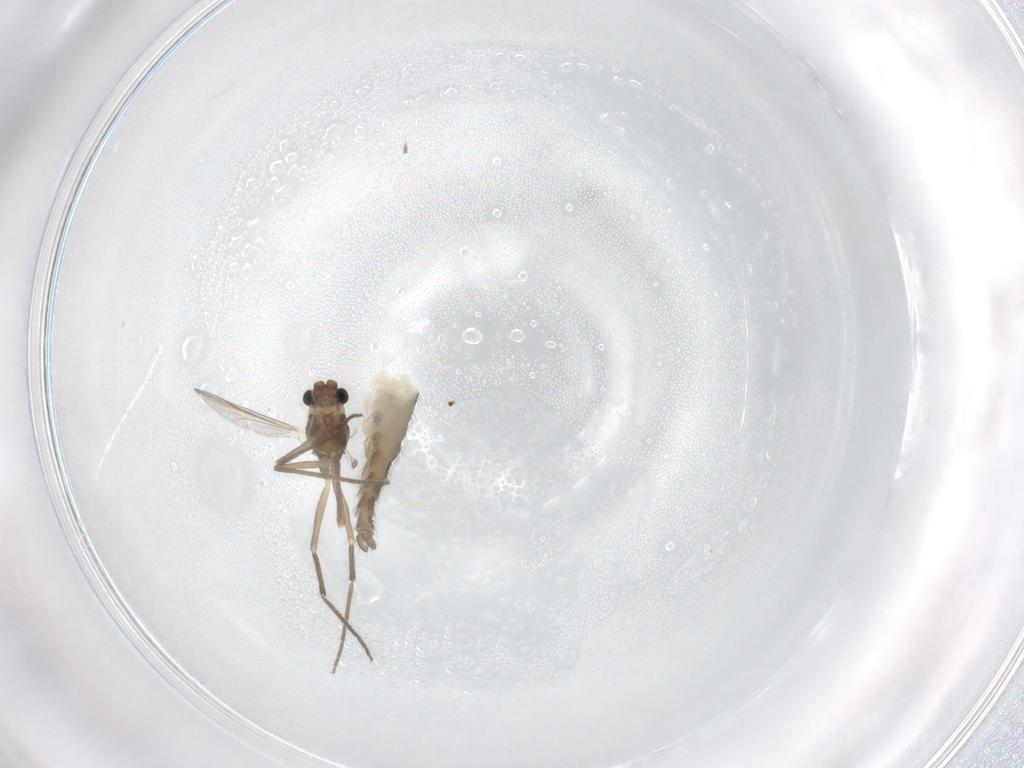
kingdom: Animalia
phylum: Arthropoda
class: Insecta
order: Diptera
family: Chironomidae
